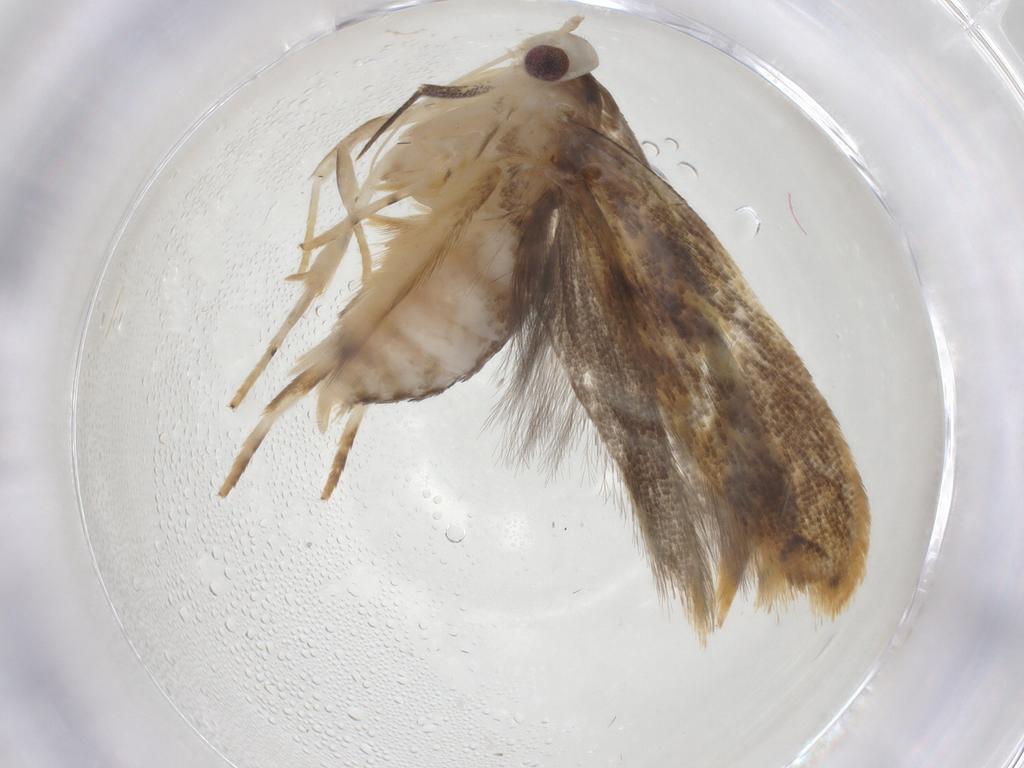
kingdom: Animalia
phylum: Arthropoda
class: Insecta
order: Lepidoptera
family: Gelechiidae
